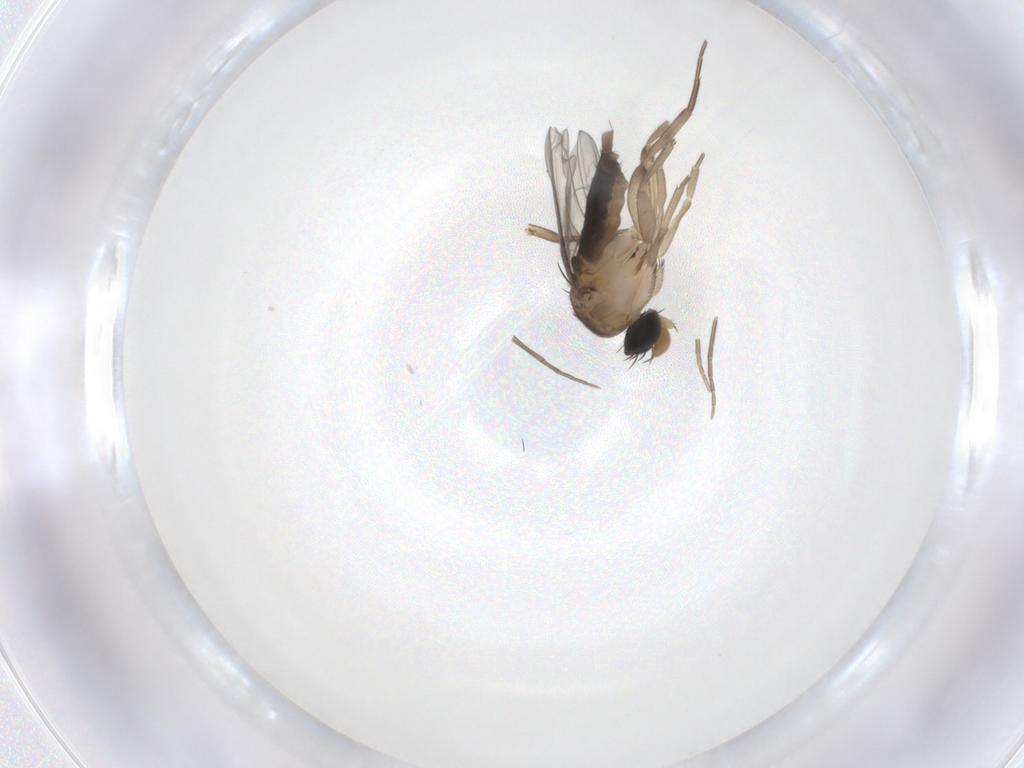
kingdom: Animalia
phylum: Arthropoda
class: Insecta
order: Diptera
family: Phoridae
